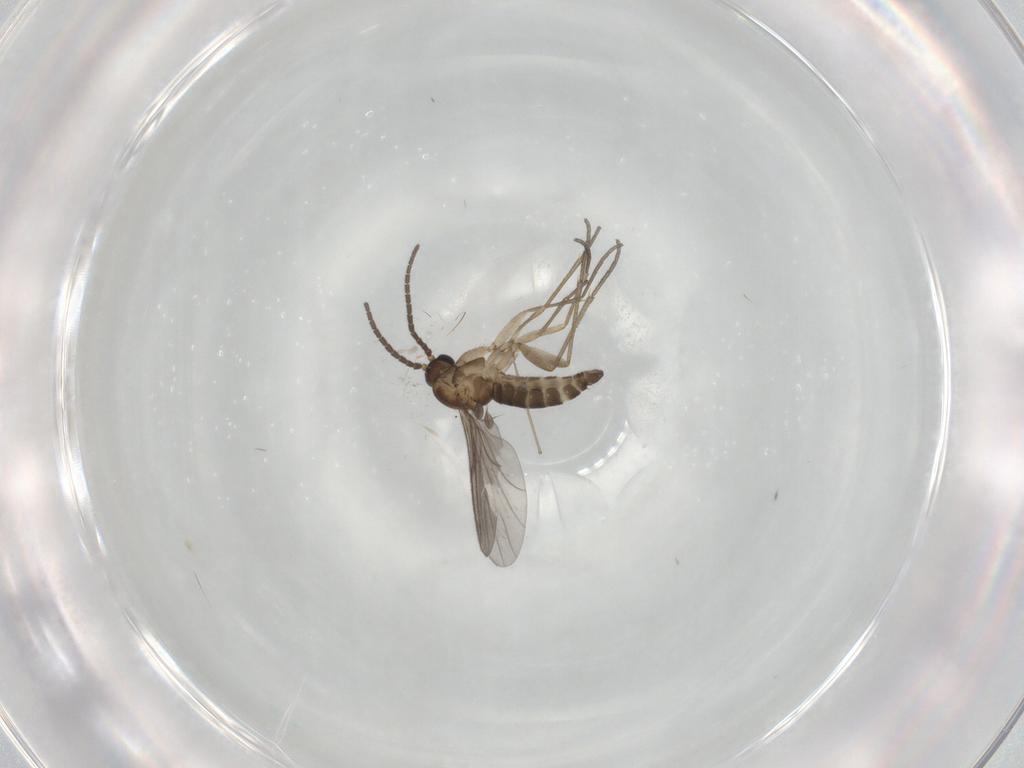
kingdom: Animalia
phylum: Arthropoda
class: Insecta
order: Diptera
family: Sciaridae
